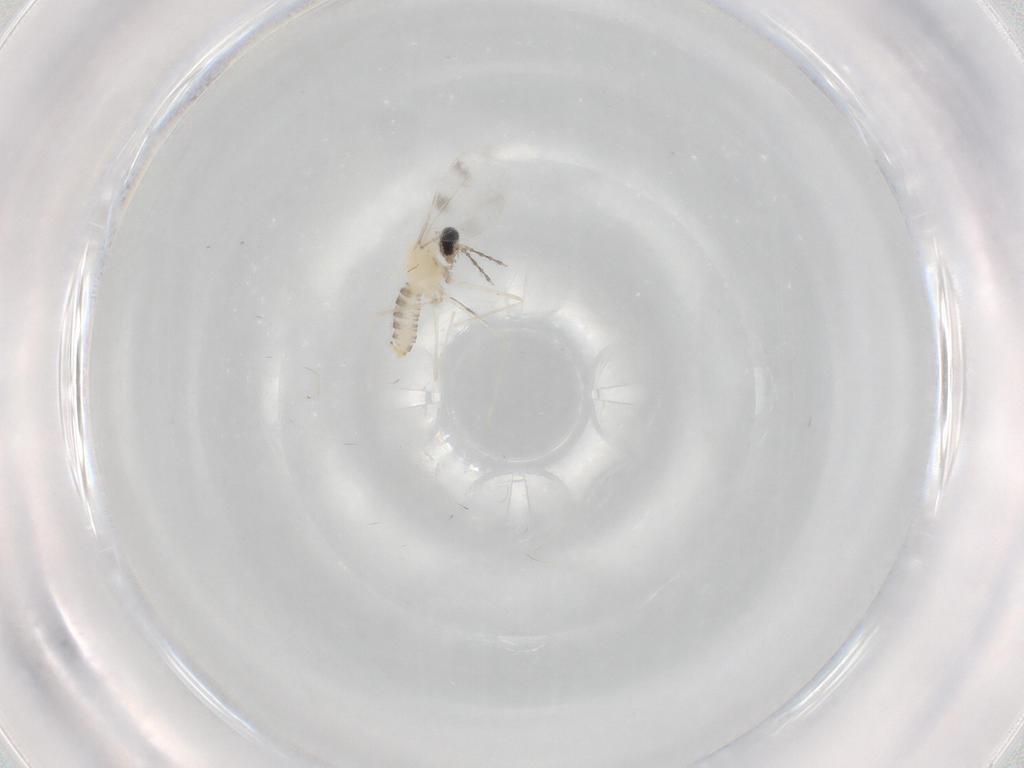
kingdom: Animalia
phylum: Arthropoda
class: Insecta
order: Diptera
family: Cecidomyiidae
